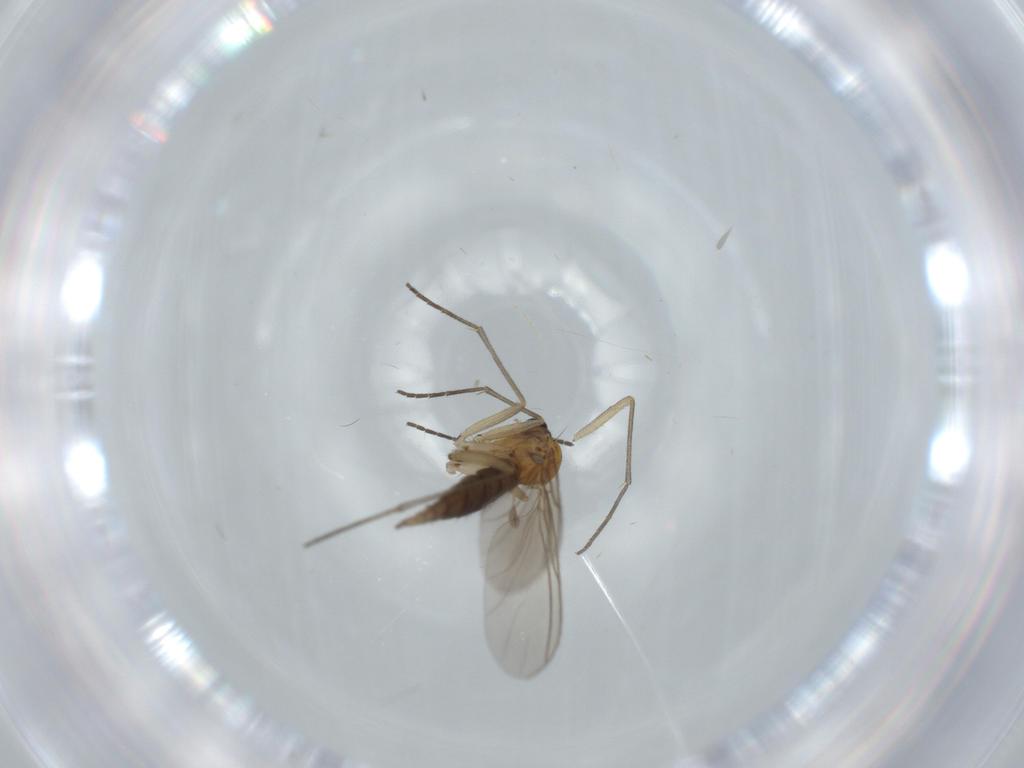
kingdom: Animalia
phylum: Arthropoda
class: Insecta
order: Diptera
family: Sciaridae
